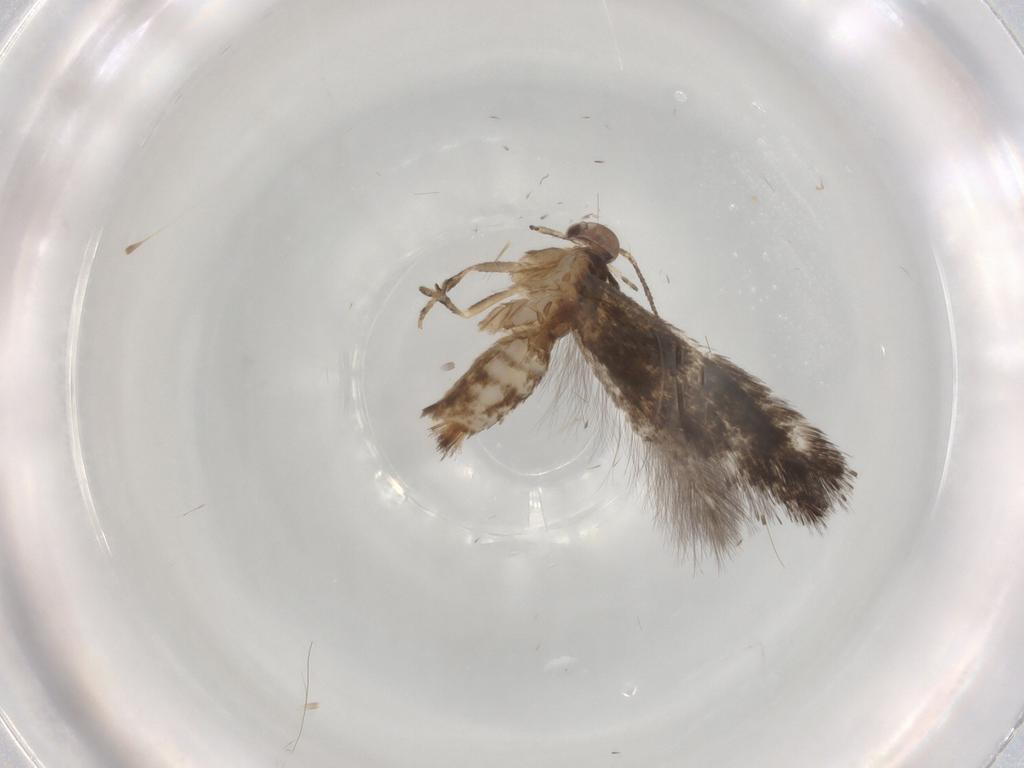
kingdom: Animalia
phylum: Arthropoda
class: Insecta
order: Lepidoptera
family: Elachistidae
